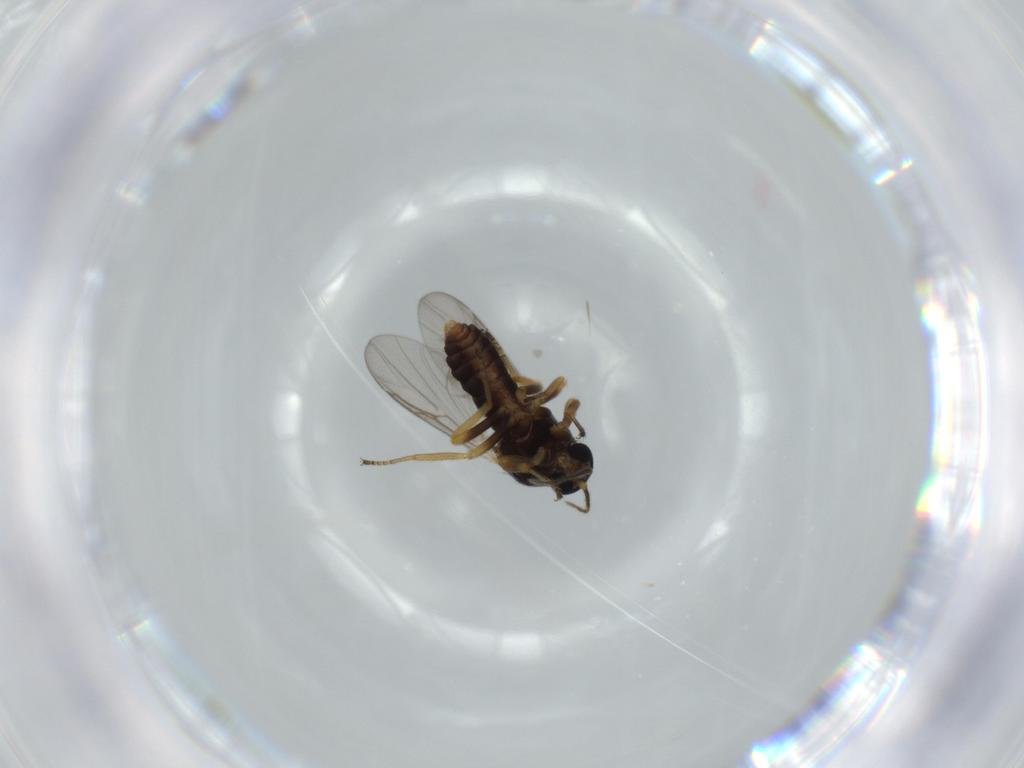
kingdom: Animalia
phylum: Arthropoda
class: Insecta
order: Diptera
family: Ceratopogonidae
